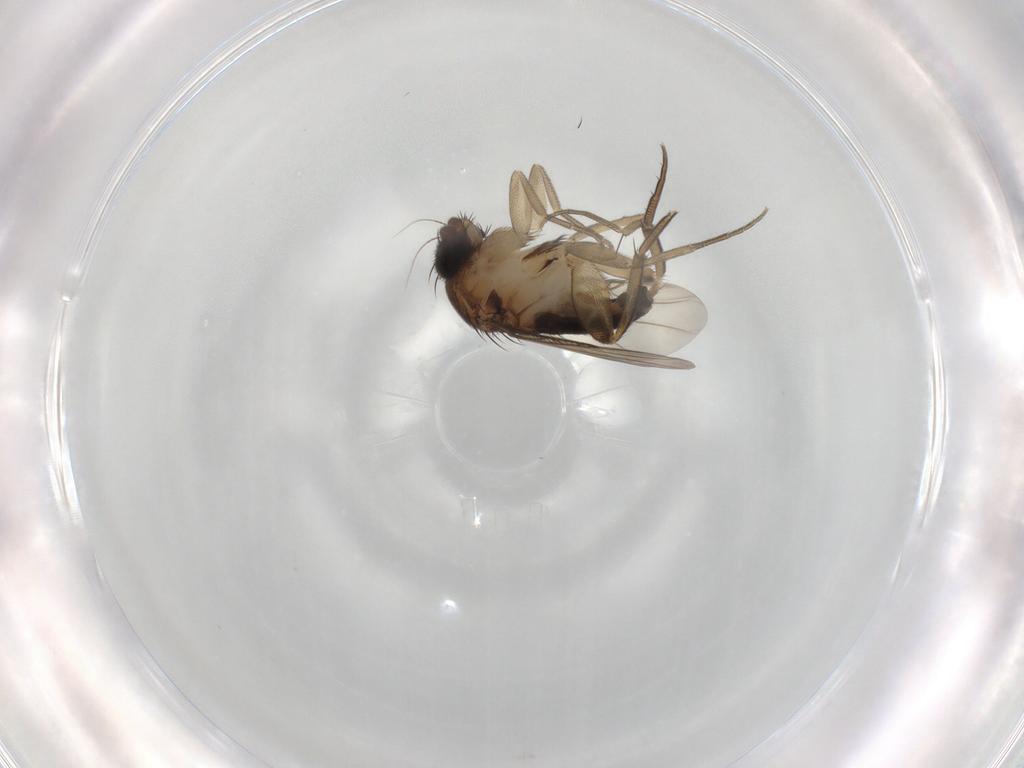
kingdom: Animalia
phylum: Arthropoda
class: Insecta
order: Diptera
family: Phoridae
